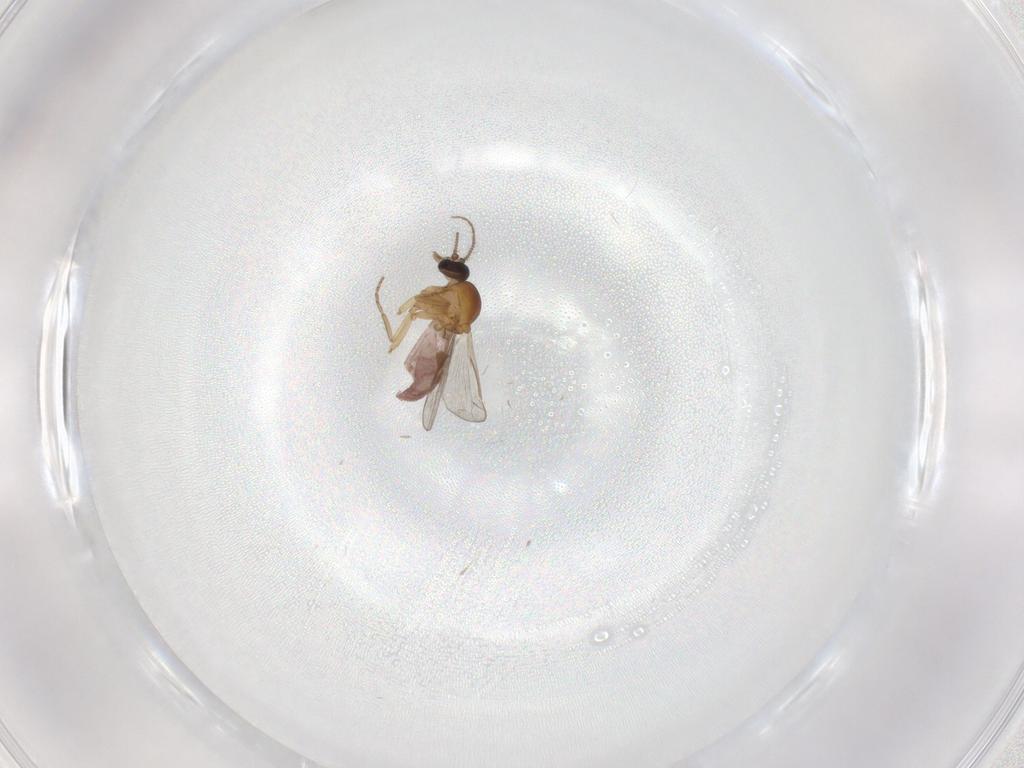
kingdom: Animalia
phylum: Arthropoda
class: Insecta
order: Diptera
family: Ceratopogonidae
